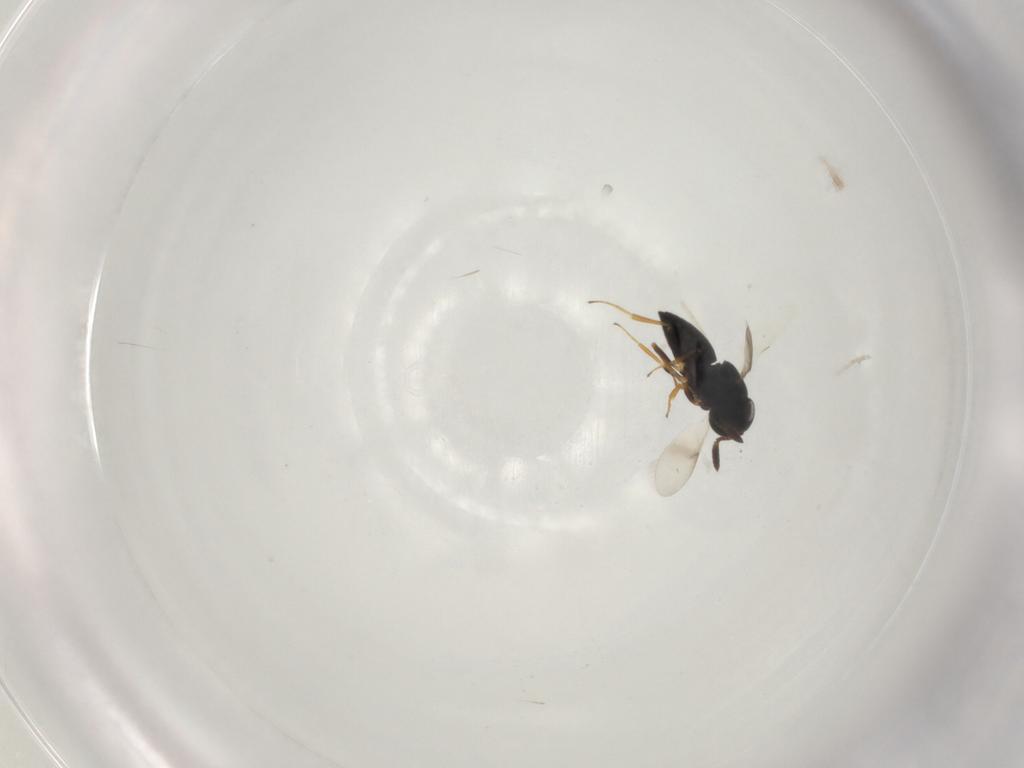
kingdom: Animalia
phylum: Arthropoda
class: Insecta
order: Hymenoptera
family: Scelionidae
